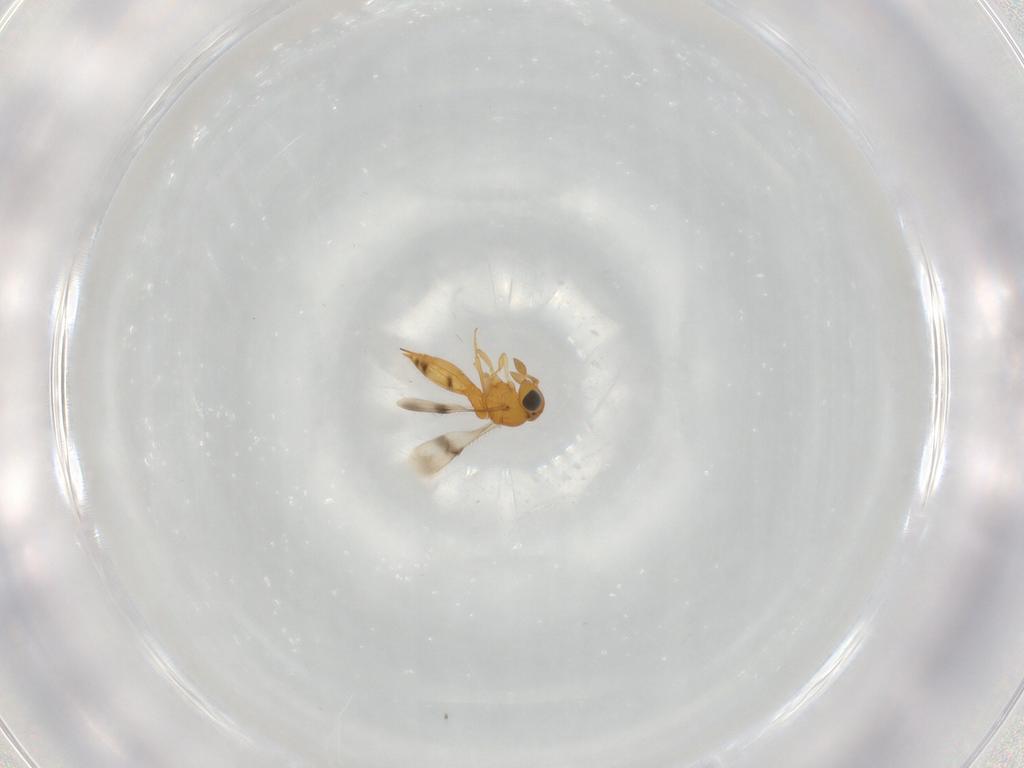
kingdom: Animalia
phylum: Arthropoda
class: Insecta
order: Hymenoptera
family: Scelionidae
